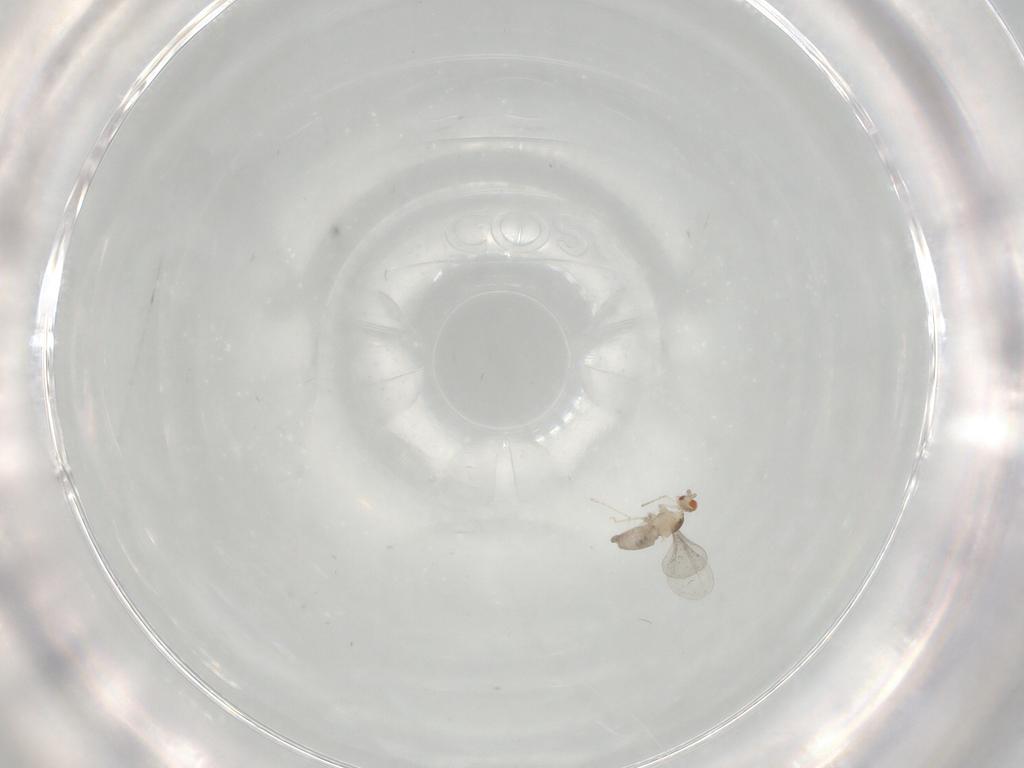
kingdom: Animalia
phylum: Arthropoda
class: Insecta
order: Diptera
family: Cecidomyiidae
